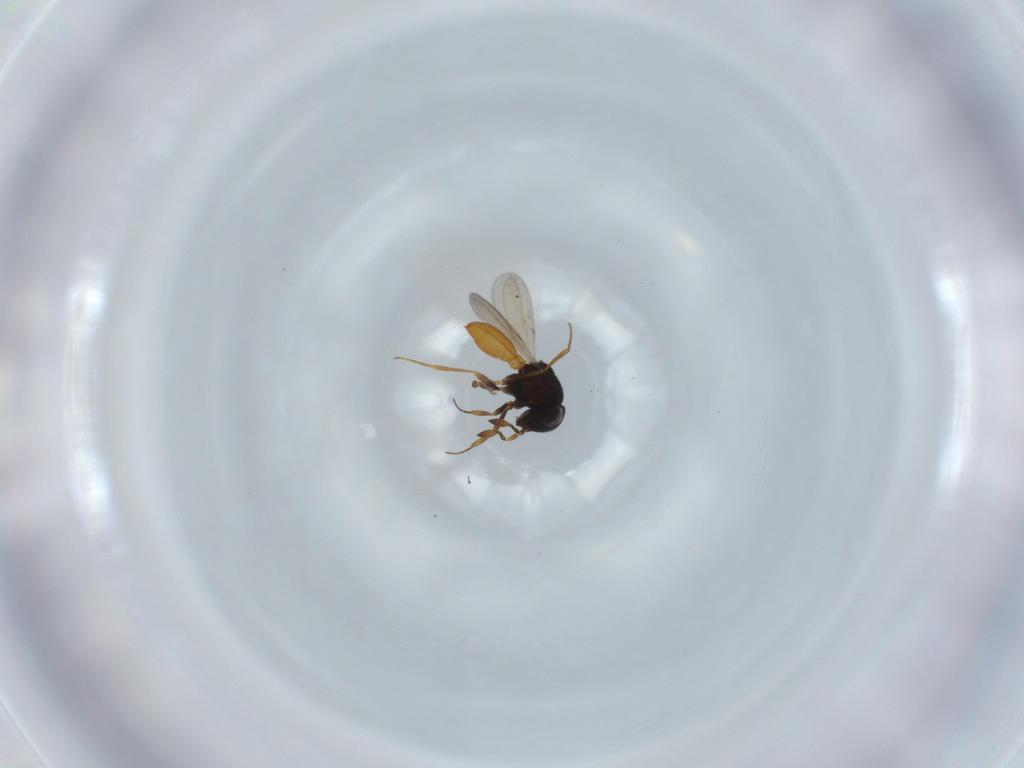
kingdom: Animalia
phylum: Arthropoda
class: Insecta
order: Hymenoptera
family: Scelionidae
